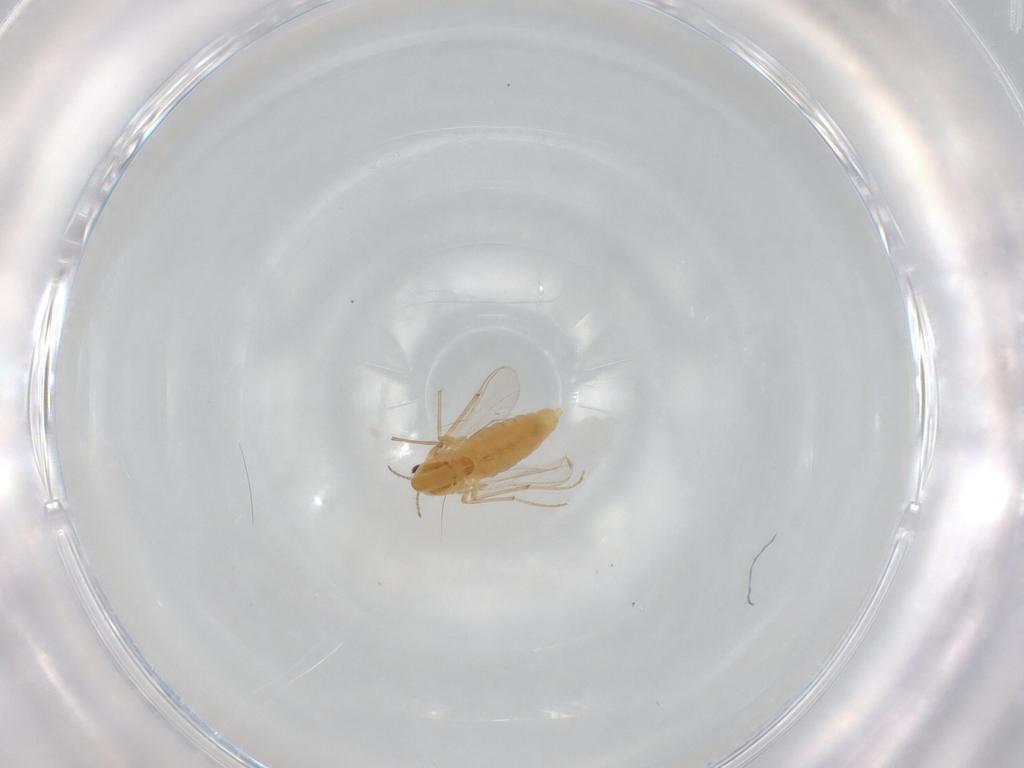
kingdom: Animalia
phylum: Arthropoda
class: Insecta
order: Diptera
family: Chironomidae
